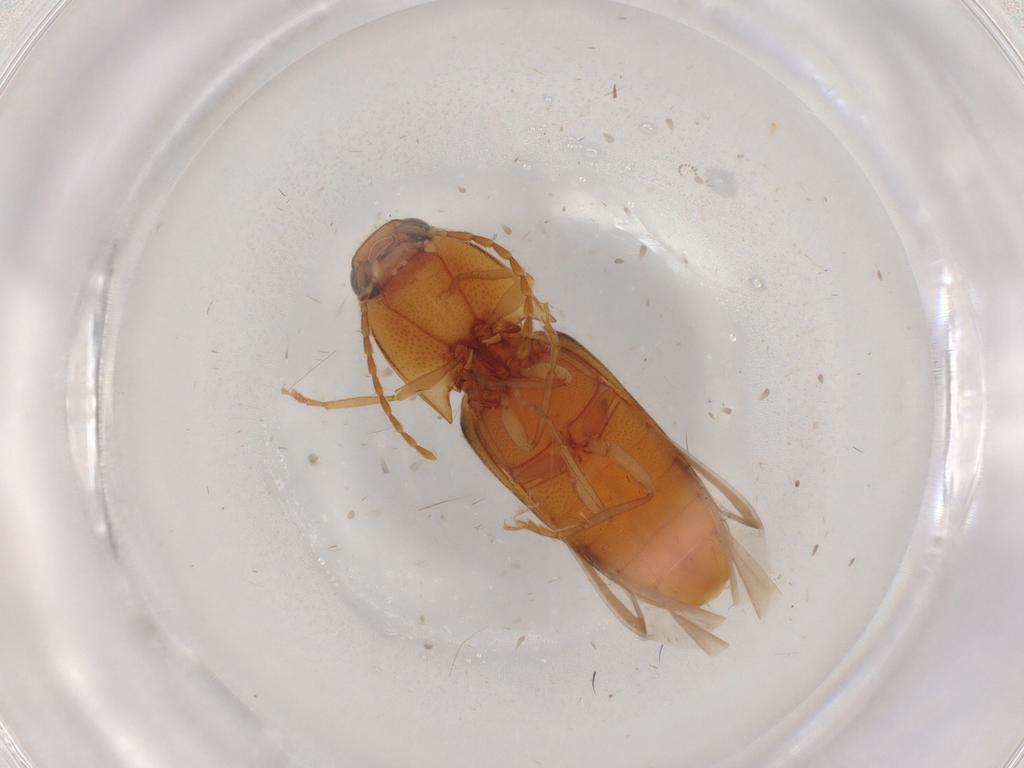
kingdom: Animalia
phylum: Arthropoda
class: Insecta
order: Coleoptera
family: Elateridae
